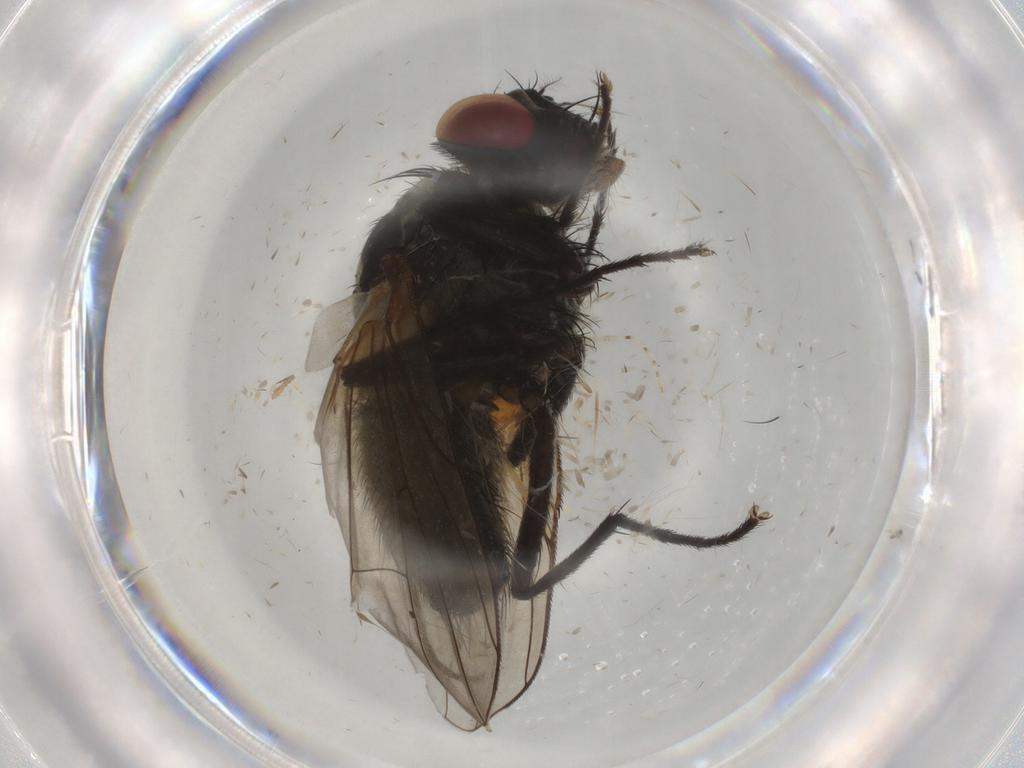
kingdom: Animalia
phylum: Arthropoda
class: Insecta
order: Diptera
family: Muscidae
